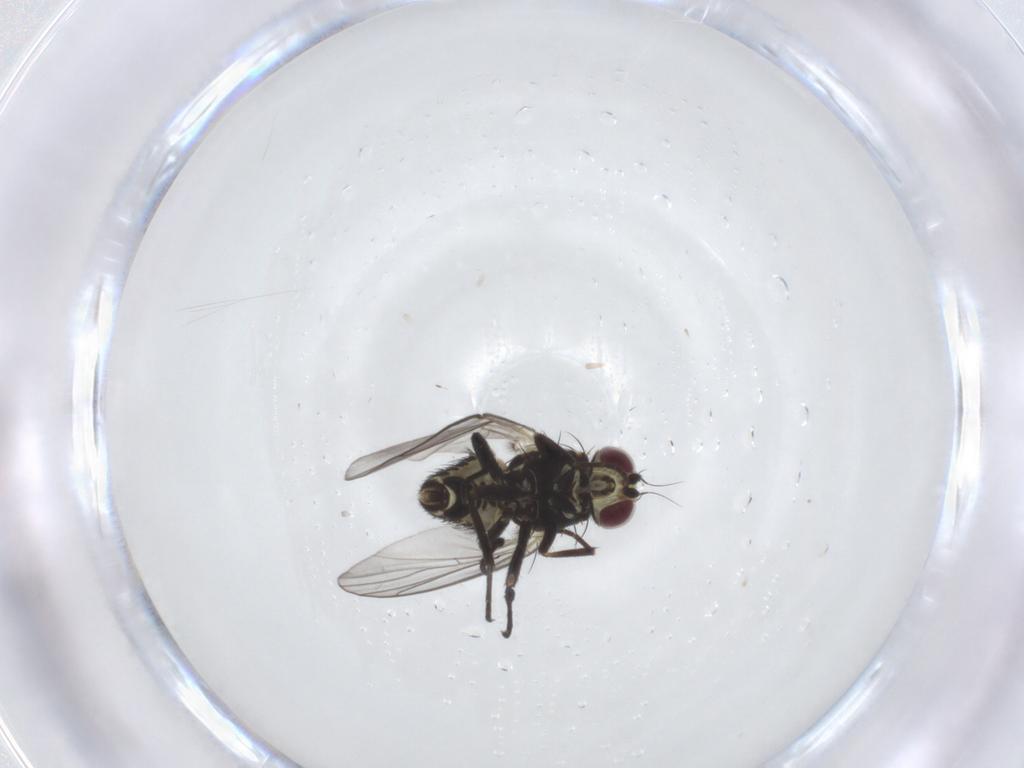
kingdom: Animalia
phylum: Arthropoda
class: Insecta
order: Diptera
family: Agromyzidae
